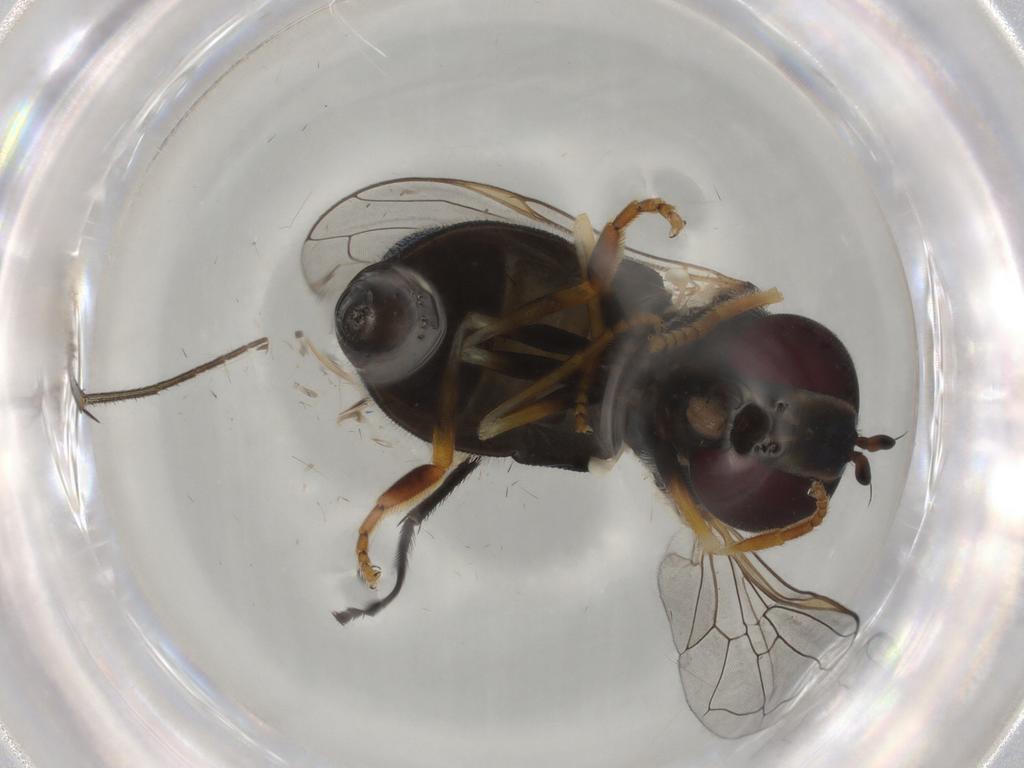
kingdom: Animalia
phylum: Arthropoda
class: Insecta
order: Diptera
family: Syrphidae
